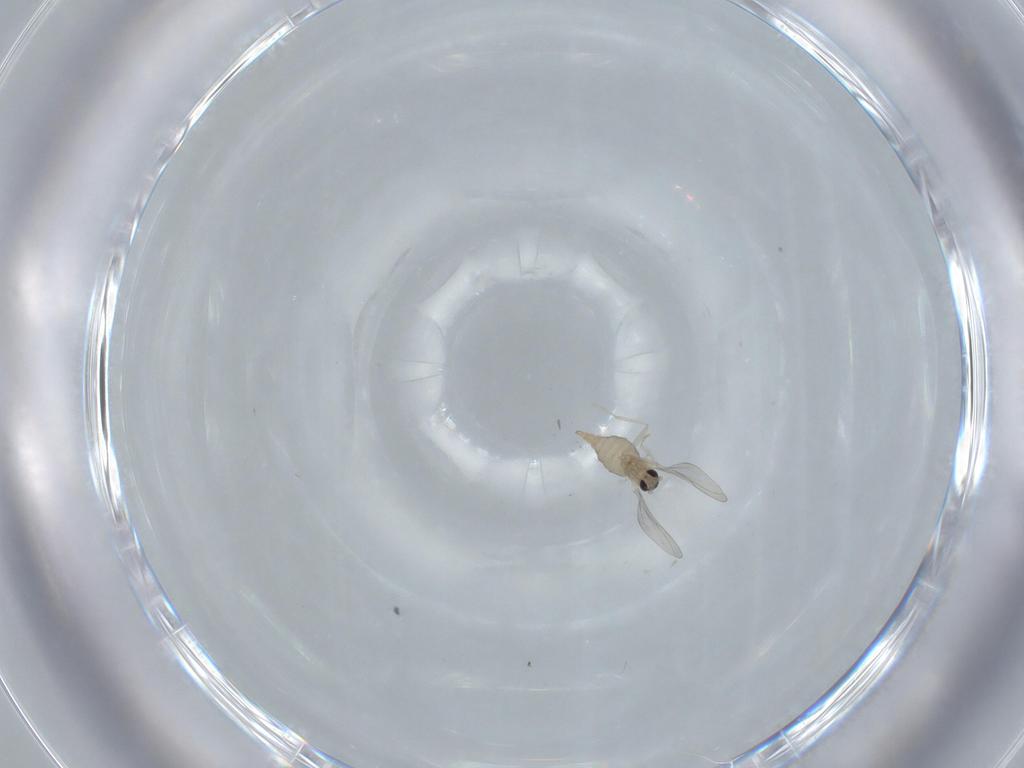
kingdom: Animalia
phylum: Arthropoda
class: Insecta
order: Diptera
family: Cecidomyiidae
